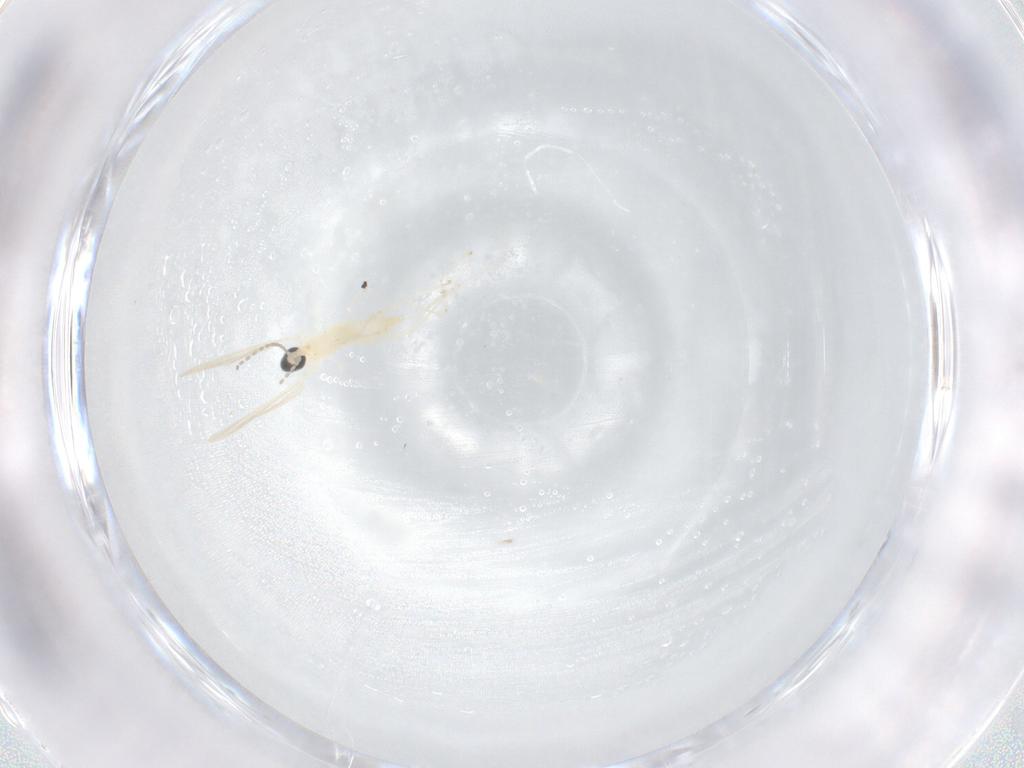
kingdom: Animalia
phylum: Arthropoda
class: Insecta
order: Diptera
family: Cecidomyiidae
